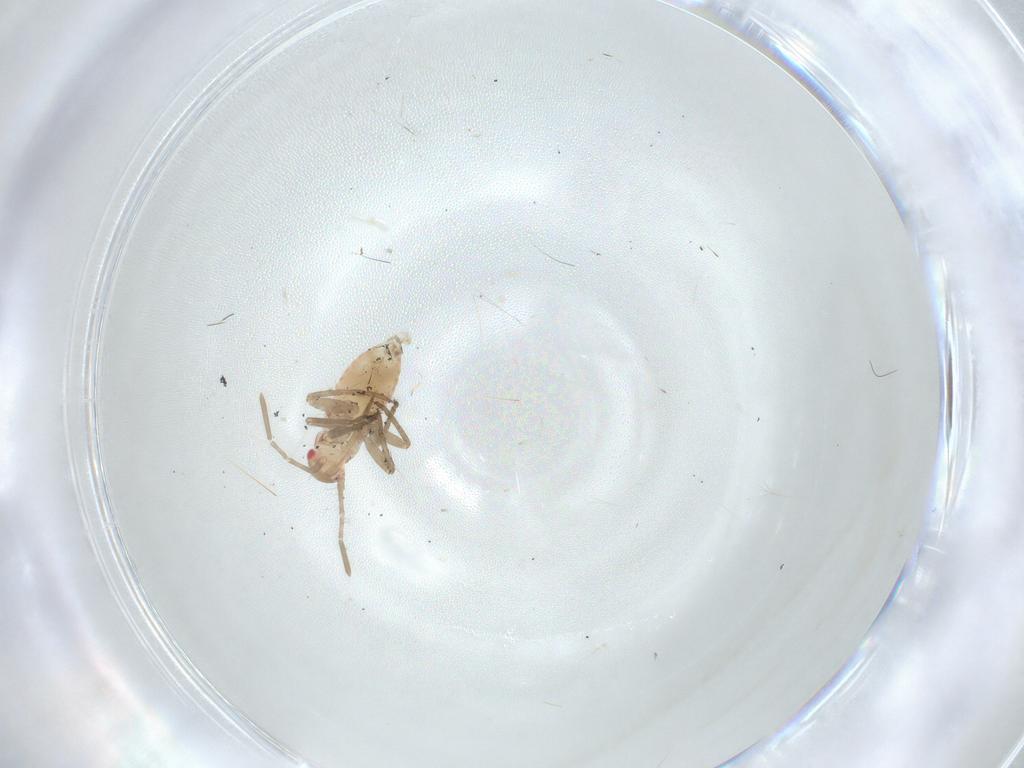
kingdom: Animalia
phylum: Arthropoda
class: Insecta
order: Hemiptera
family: Miridae
